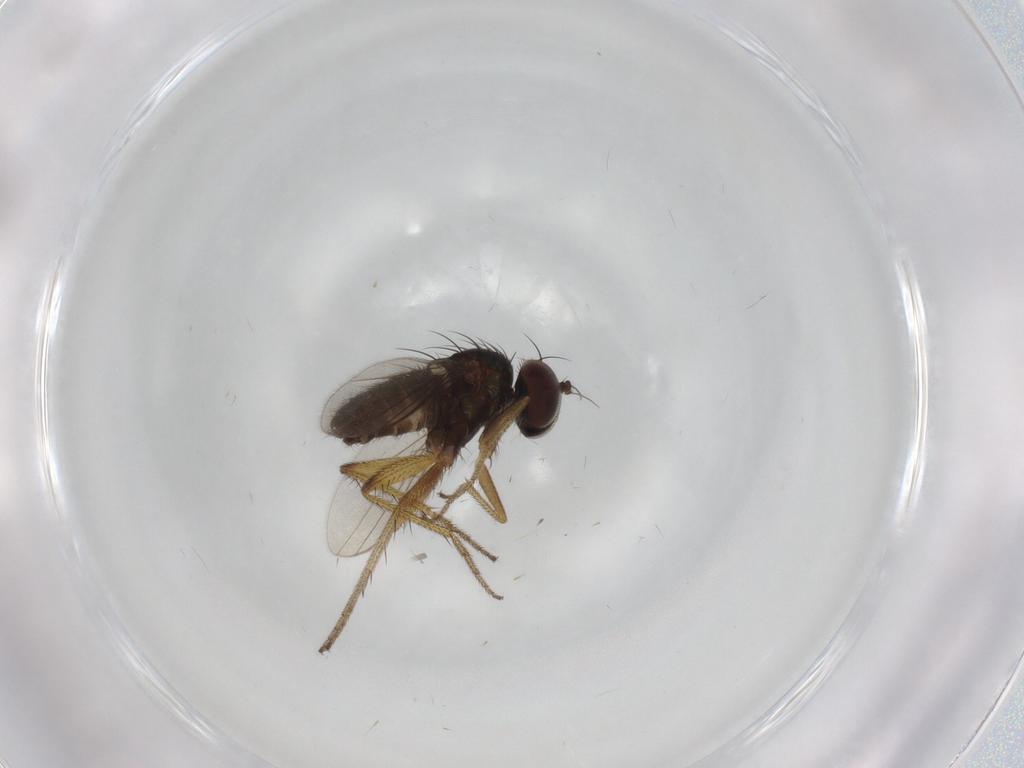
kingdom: Animalia
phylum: Arthropoda
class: Insecta
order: Diptera
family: Dolichopodidae
